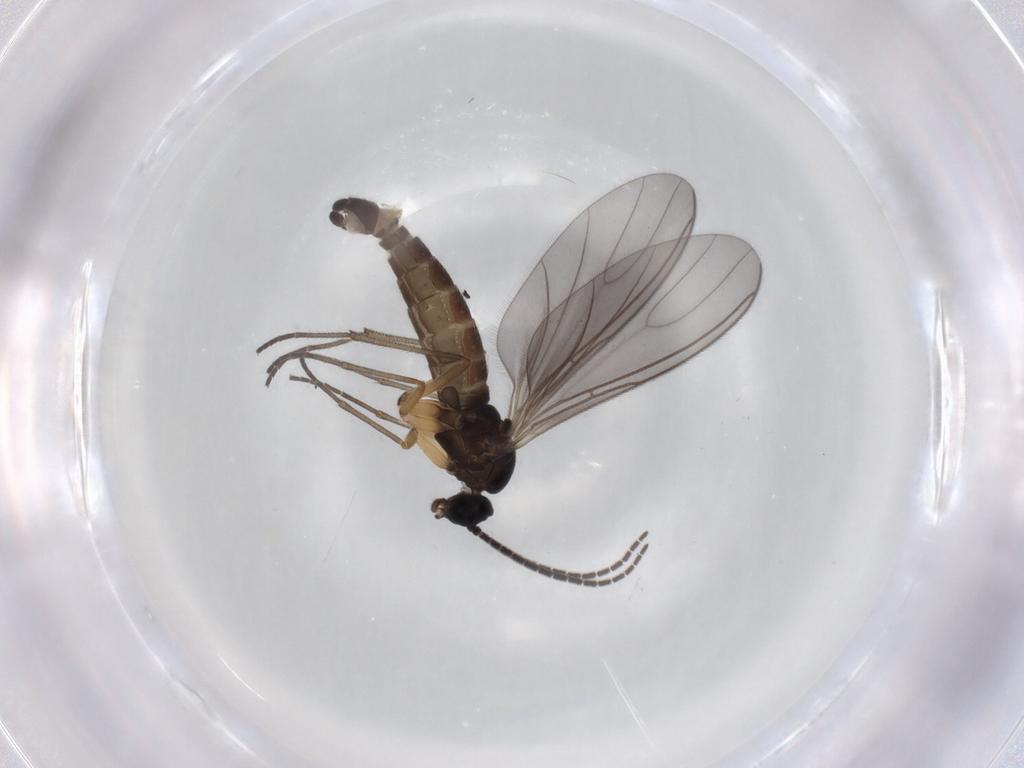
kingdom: Animalia
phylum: Arthropoda
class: Insecta
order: Diptera
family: Sciaridae
